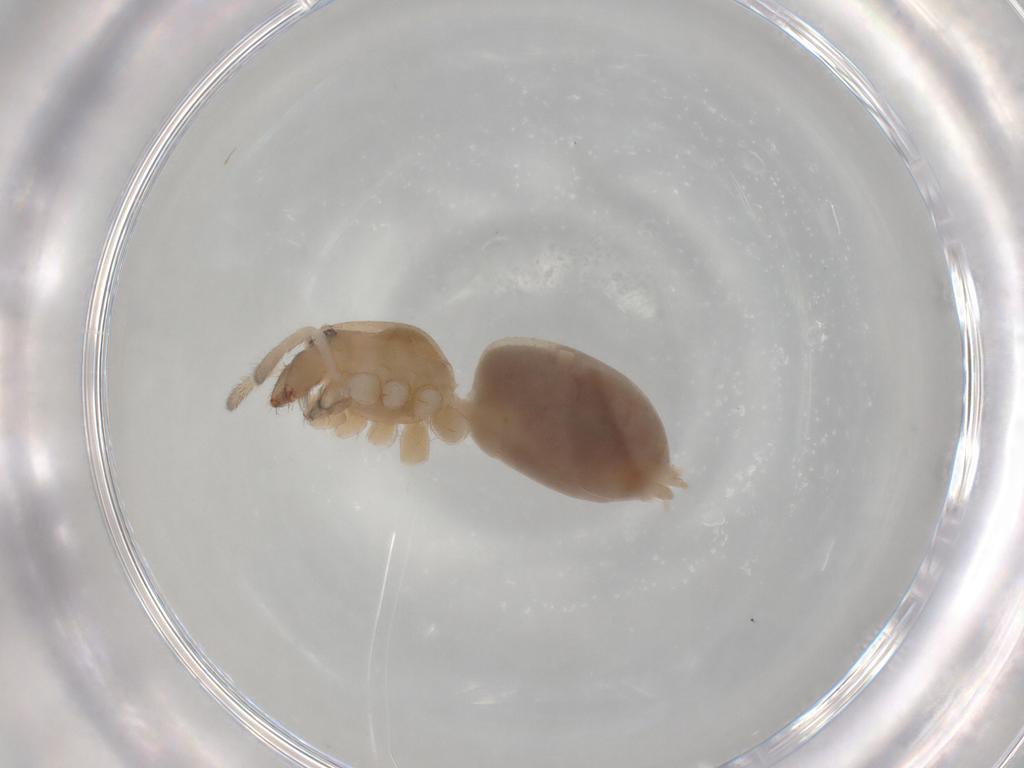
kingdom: Animalia
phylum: Arthropoda
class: Arachnida
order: Araneae
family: Anyphaenidae
